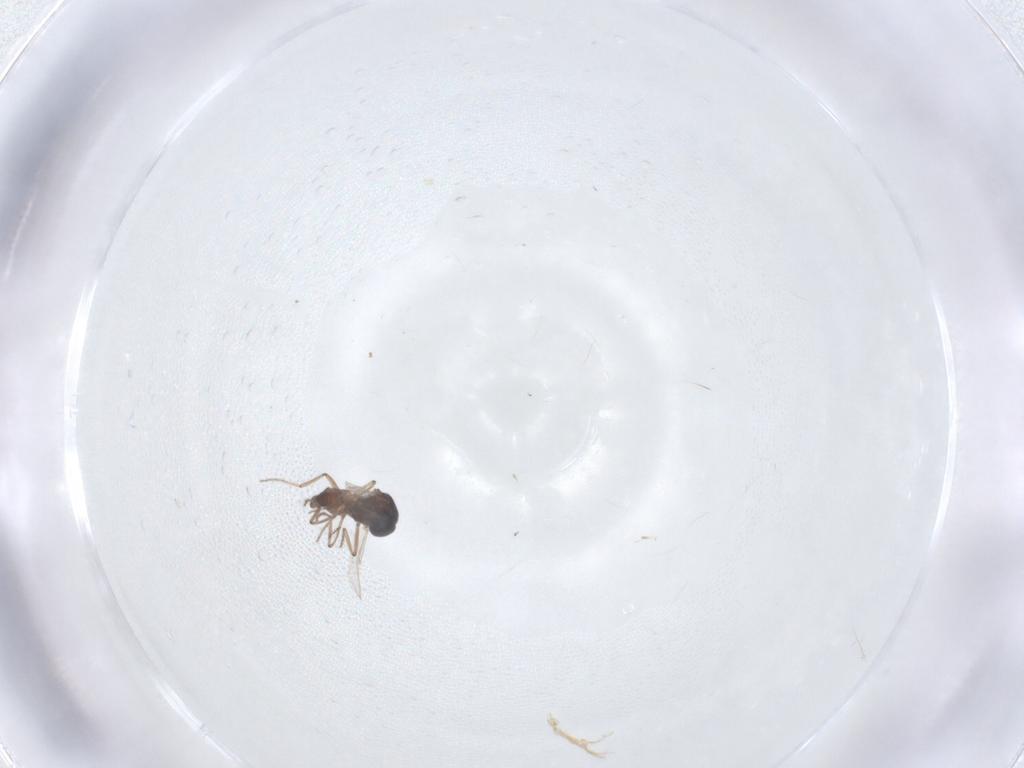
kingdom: Animalia
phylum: Arthropoda
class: Insecta
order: Diptera
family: Ceratopogonidae
